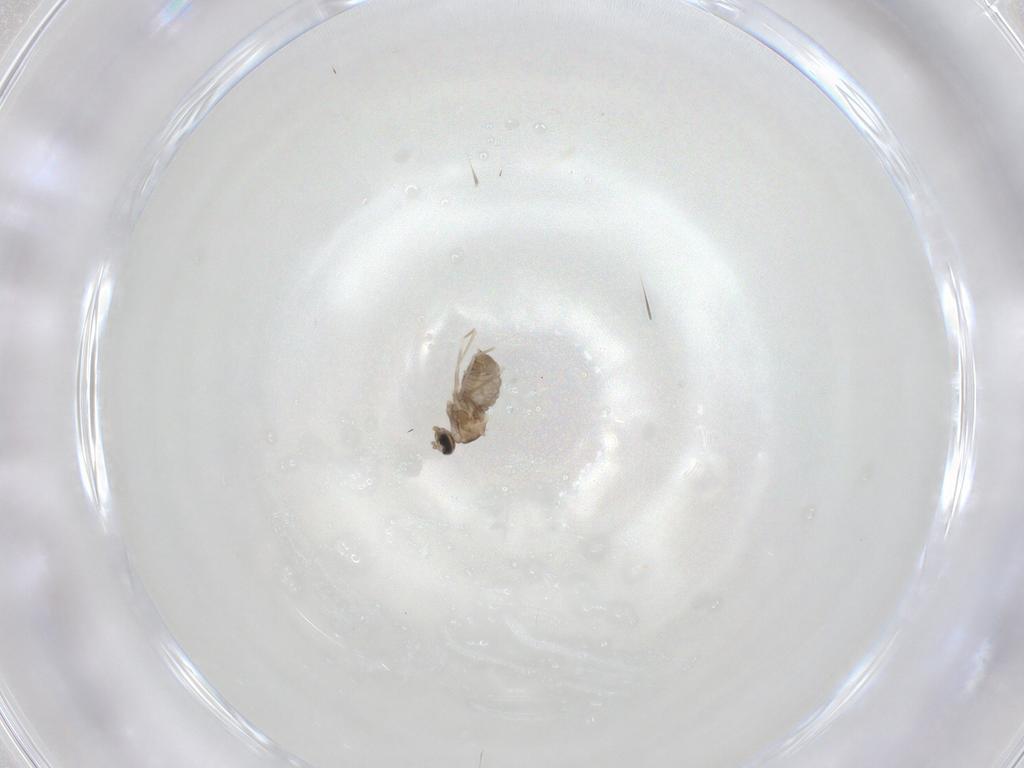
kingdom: Animalia
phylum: Arthropoda
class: Insecta
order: Diptera
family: Cecidomyiidae
